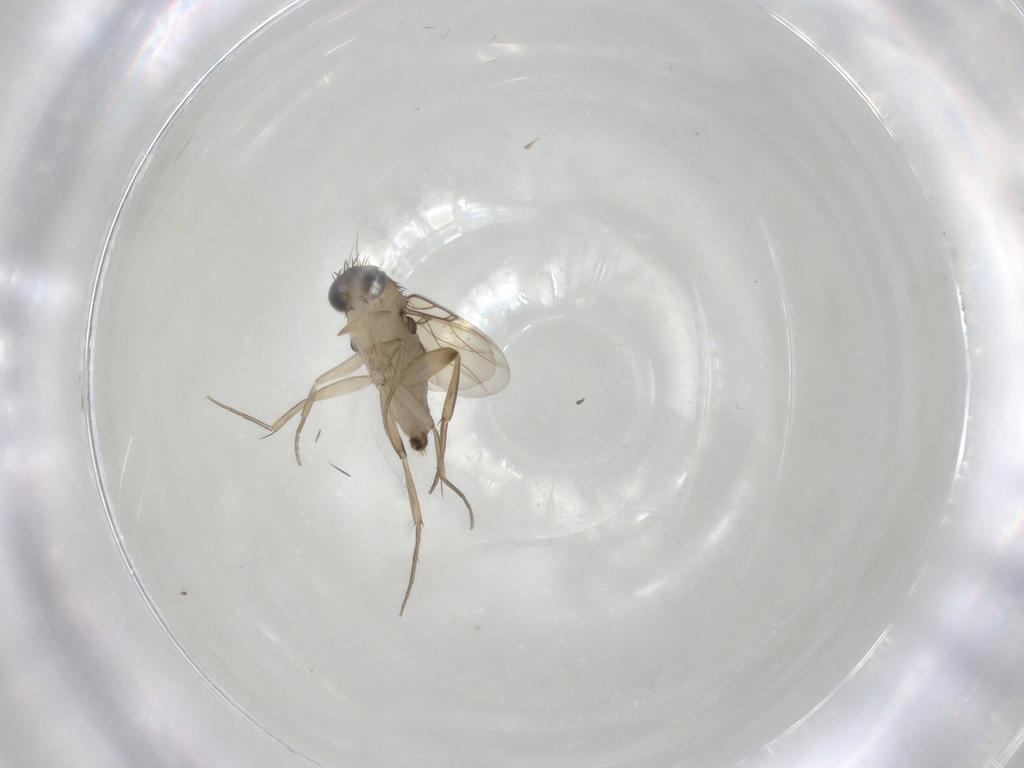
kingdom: Animalia
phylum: Arthropoda
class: Insecta
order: Diptera
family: Phoridae
